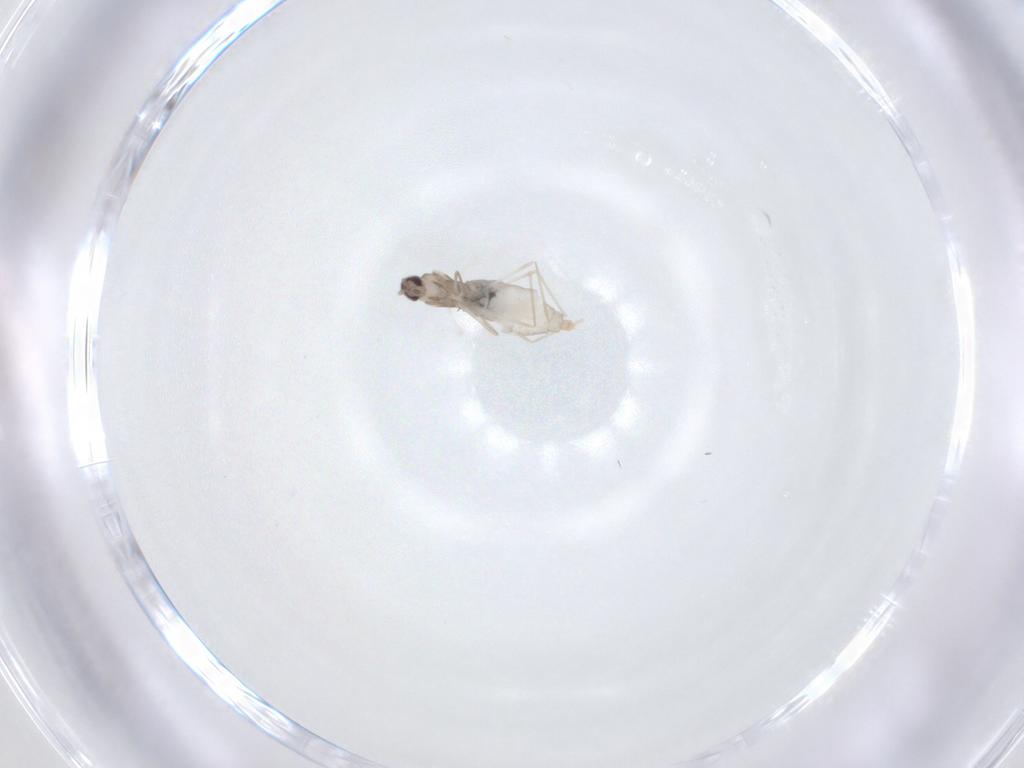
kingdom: Animalia
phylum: Arthropoda
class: Insecta
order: Diptera
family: Cecidomyiidae
